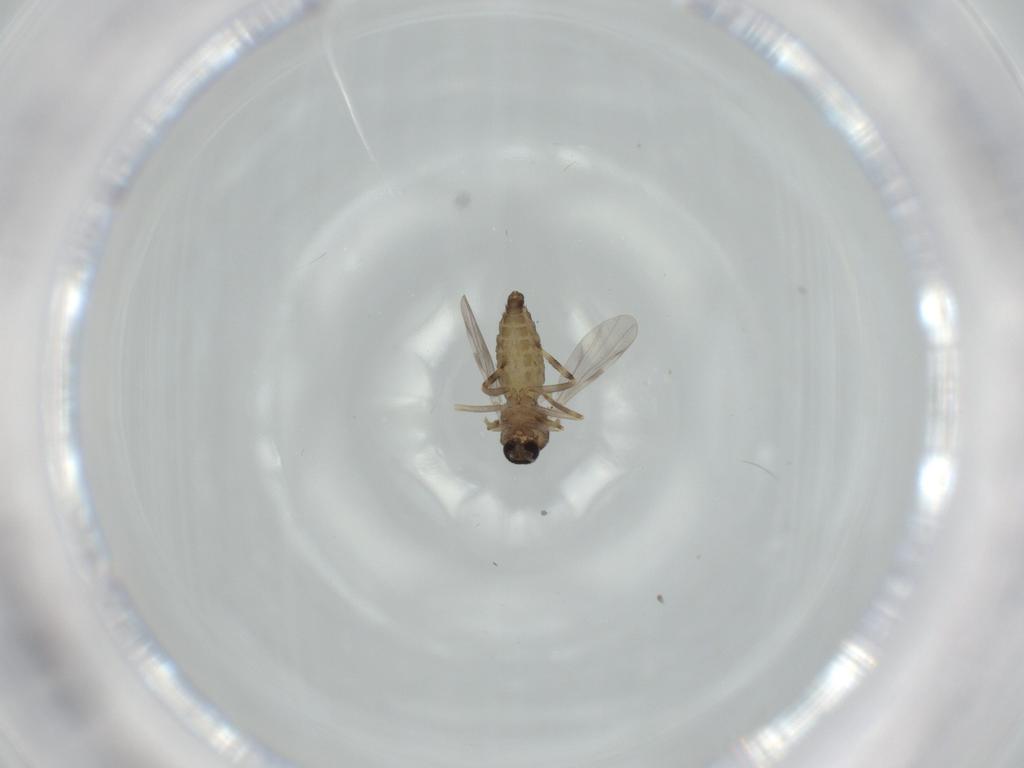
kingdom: Animalia
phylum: Arthropoda
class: Insecta
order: Diptera
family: Ceratopogonidae
